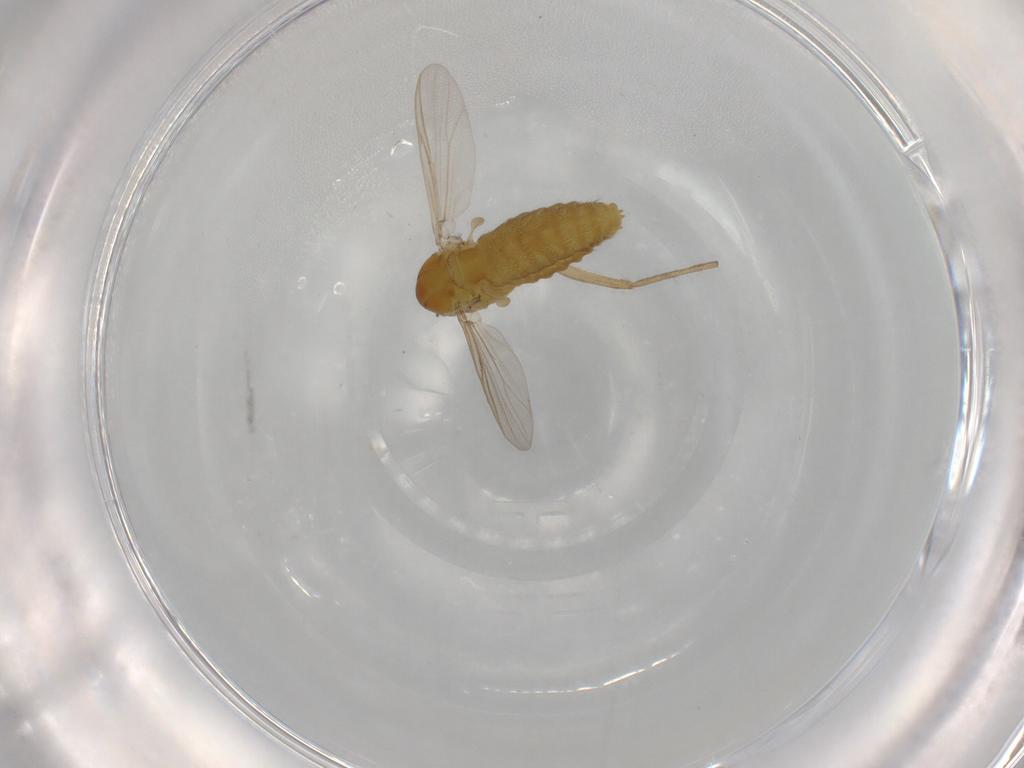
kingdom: Animalia
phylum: Arthropoda
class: Insecta
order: Diptera
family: Chironomidae
